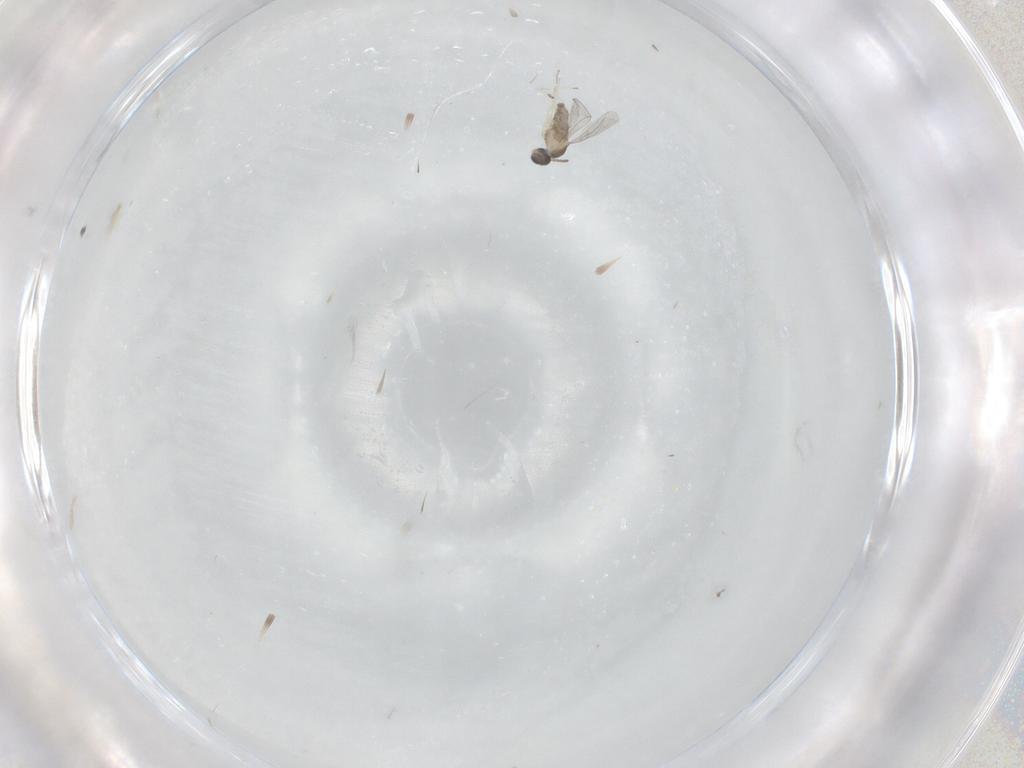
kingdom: Animalia
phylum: Arthropoda
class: Insecta
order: Diptera
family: Cecidomyiidae
